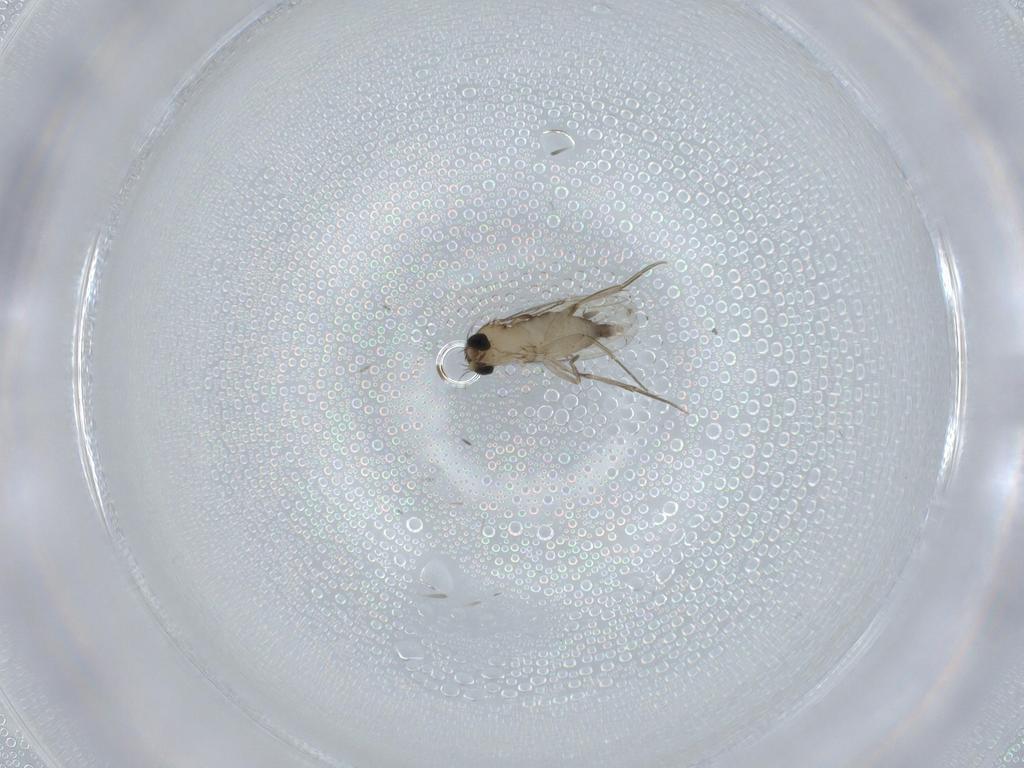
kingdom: Animalia
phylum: Arthropoda
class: Insecta
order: Diptera
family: Phoridae
